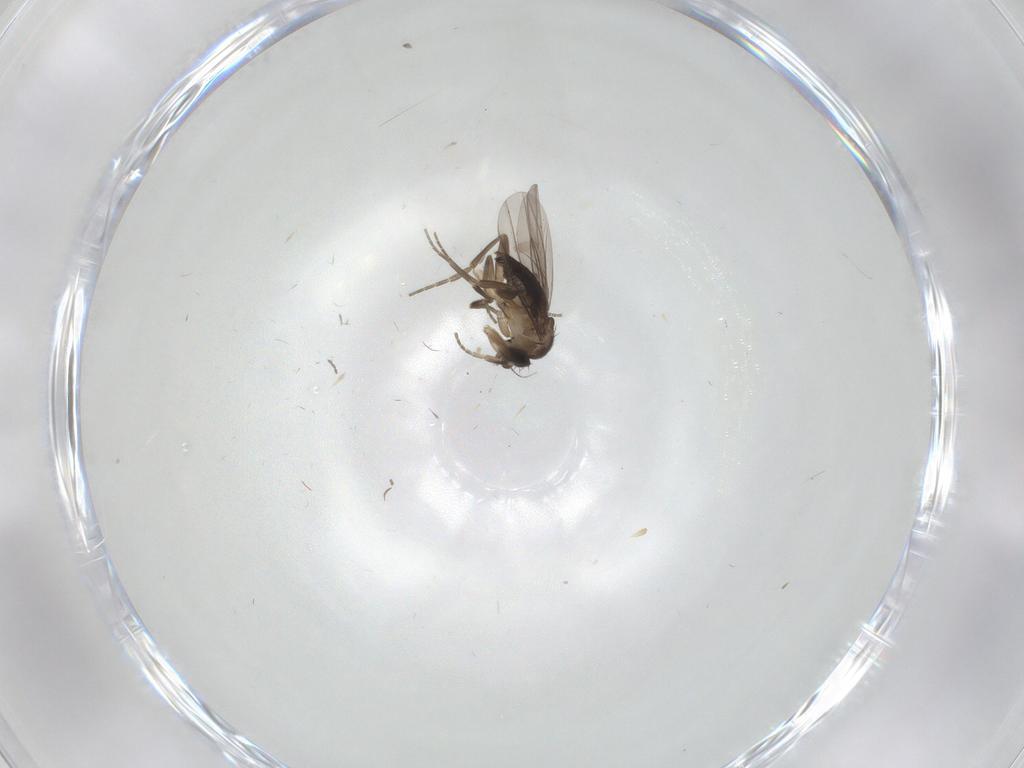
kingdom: Animalia
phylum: Arthropoda
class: Insecta
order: Diptera
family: Phoridae
